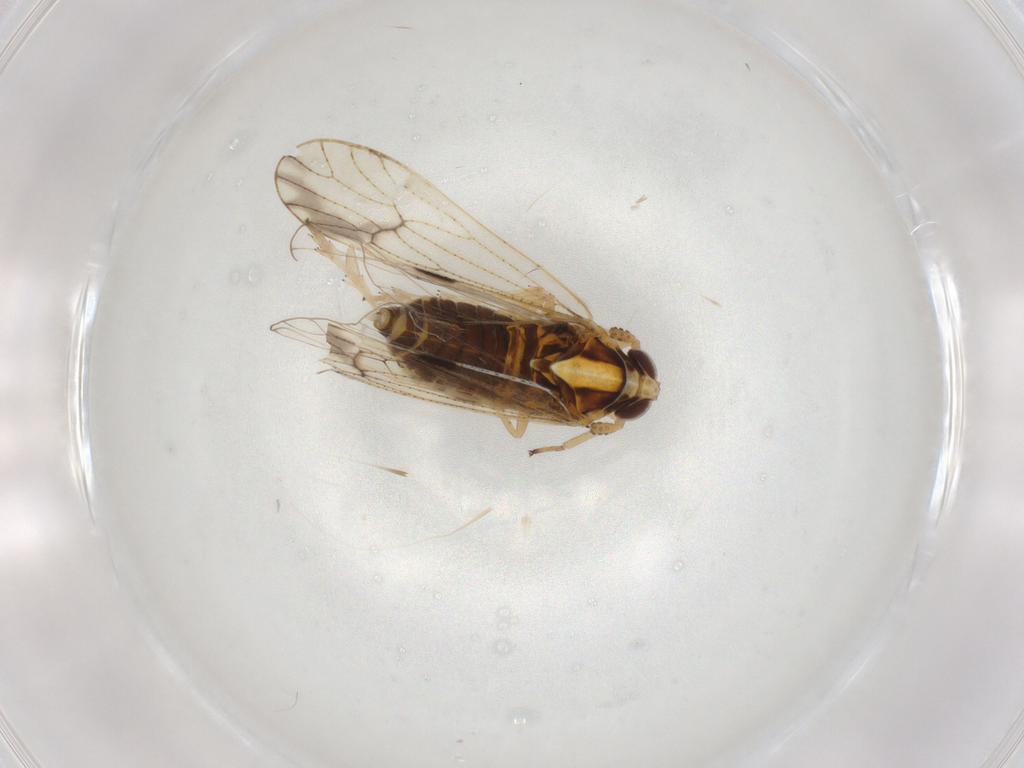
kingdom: Animalia
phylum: Arthropoda
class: Insecta
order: Hemiptera
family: Delphacidae
